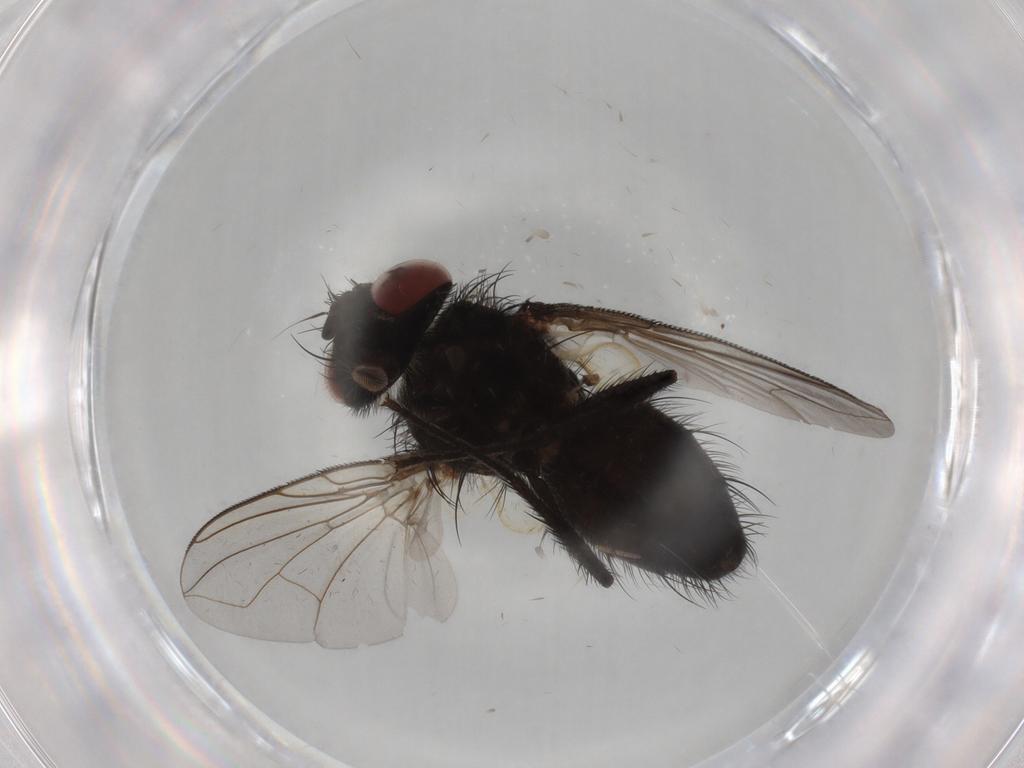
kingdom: Animalia
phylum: Arthropoda
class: Insecta
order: Diptera
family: Tachinidae
